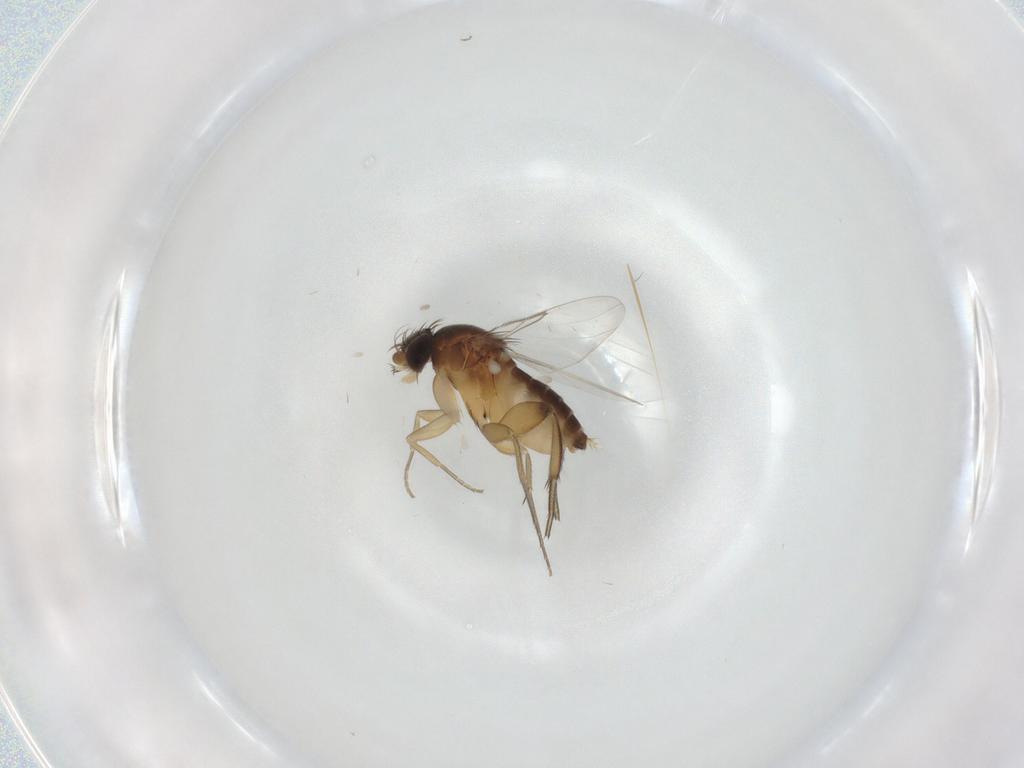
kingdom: Animalia
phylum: Arthropoda
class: Insecta
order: Diptera
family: Phoridae
